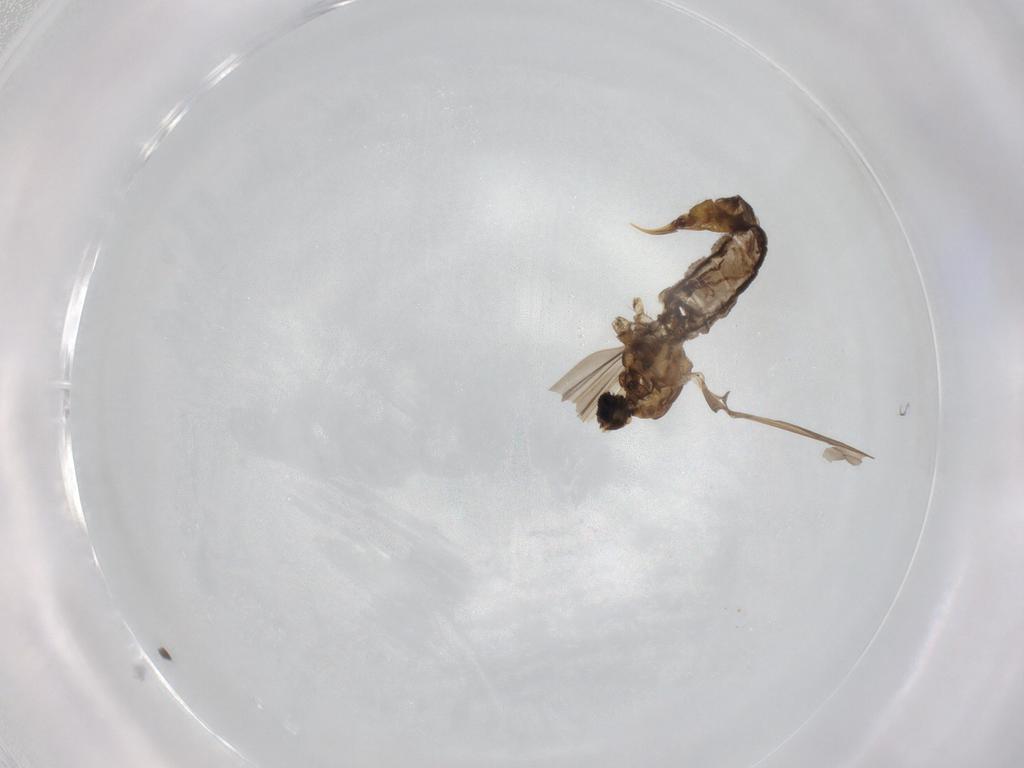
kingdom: Animalia
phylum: Arthropoda
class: Insecta
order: Diptera
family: Limoniidae
